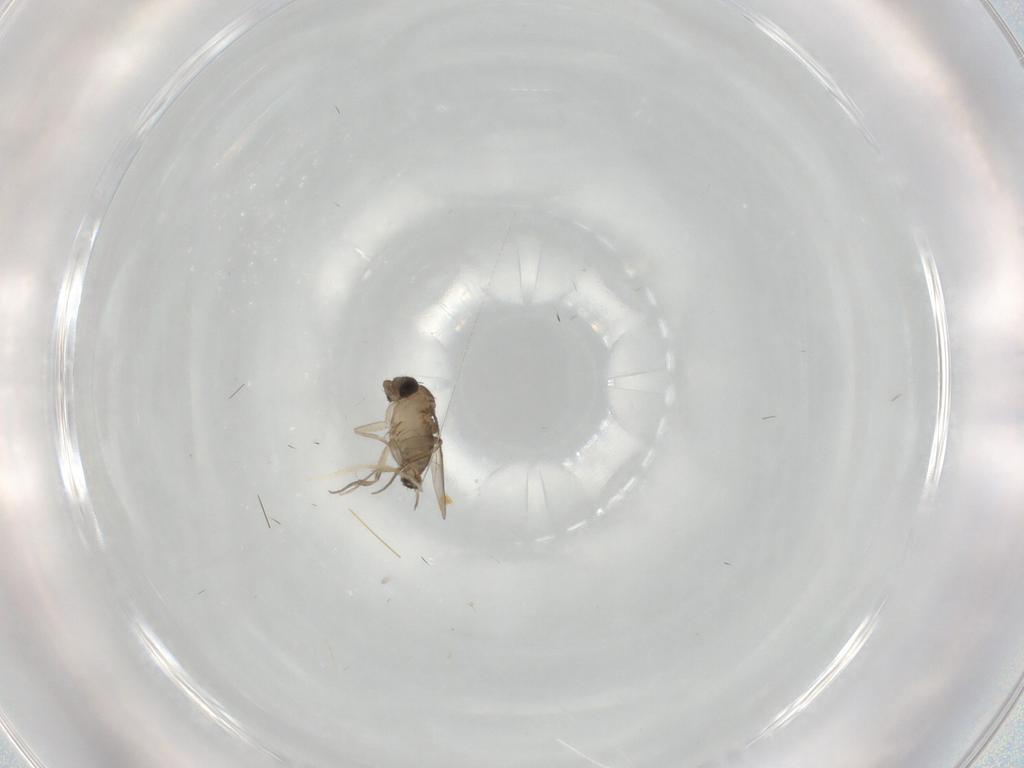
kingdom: Animalia
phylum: Arthropoda
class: Insecta
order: Diptera
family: Phoridae
